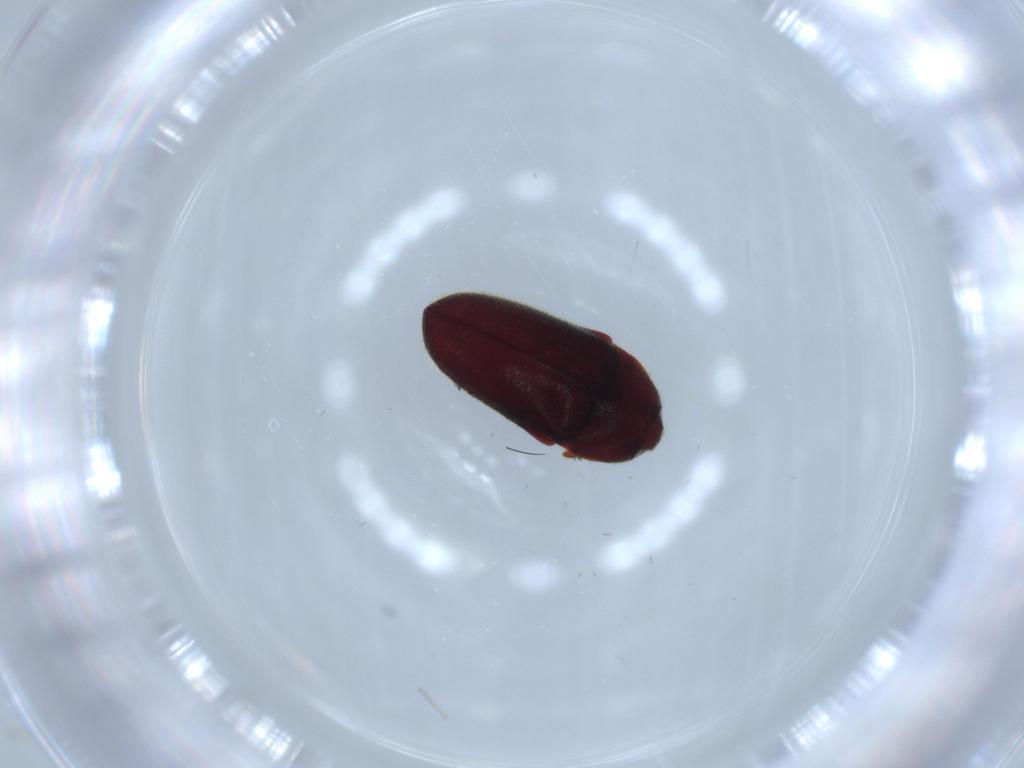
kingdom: Animalia
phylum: Arthropoda
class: Insecta
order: Coleoptera
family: Throscidae
